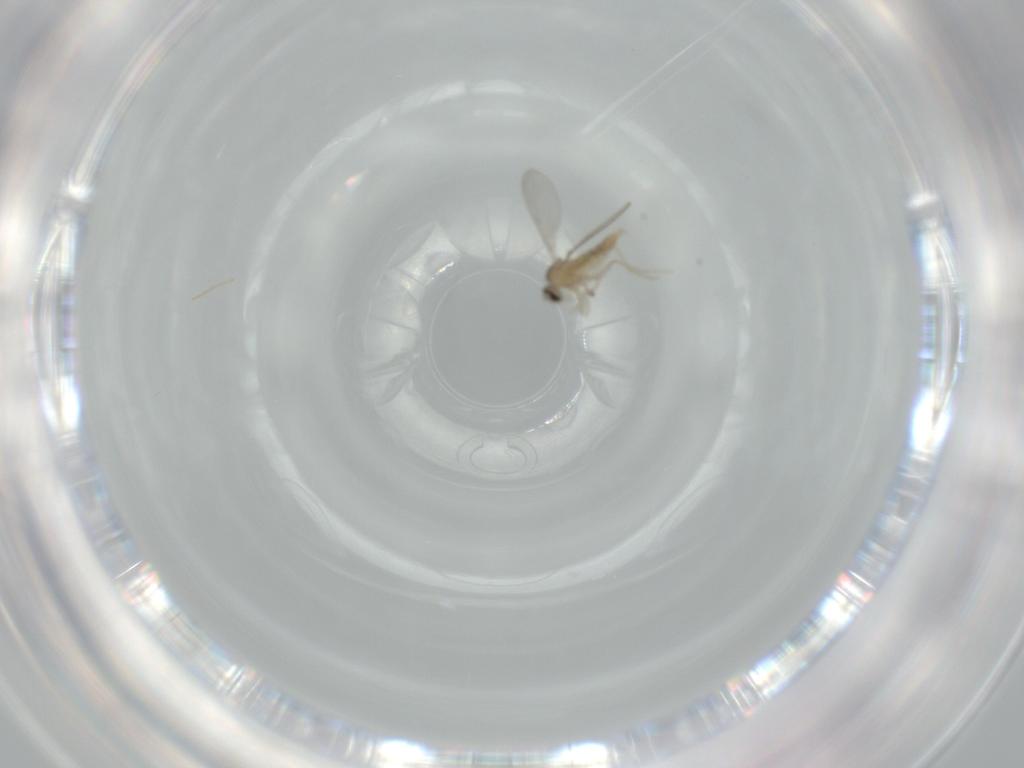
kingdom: Animalia
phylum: Arthropoda
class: Insecta
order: Diptera
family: Cecidomyiidae
